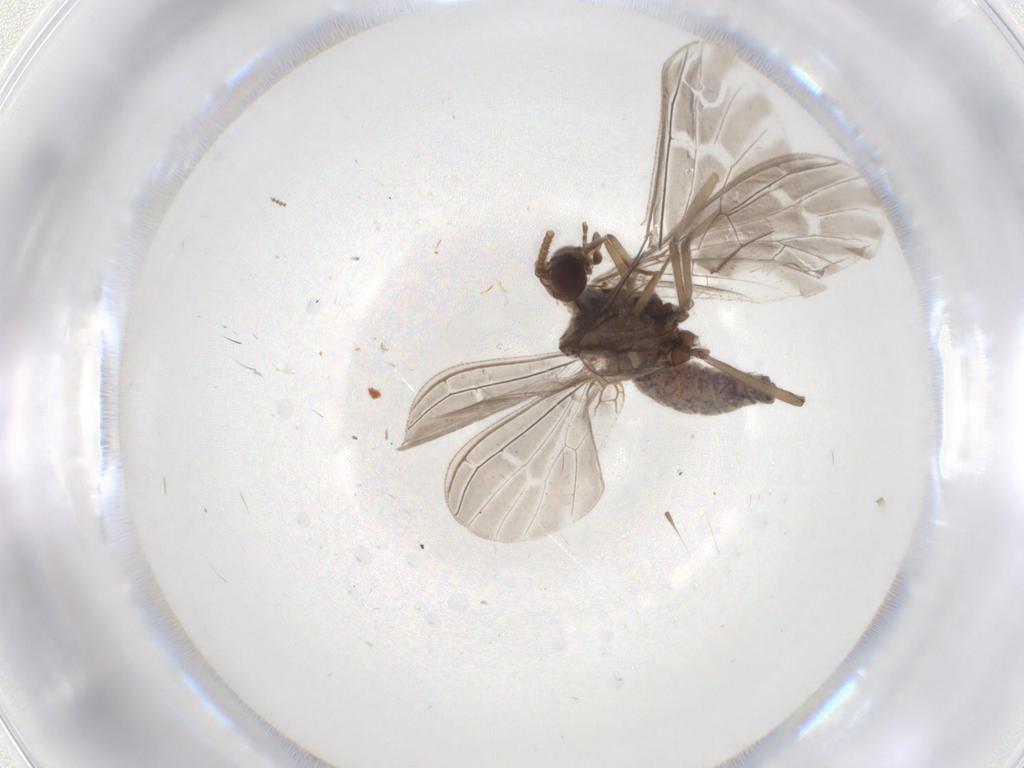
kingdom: Animalia
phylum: Arthropoda
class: Insecta
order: Neuroptera
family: Coniopterygidae
